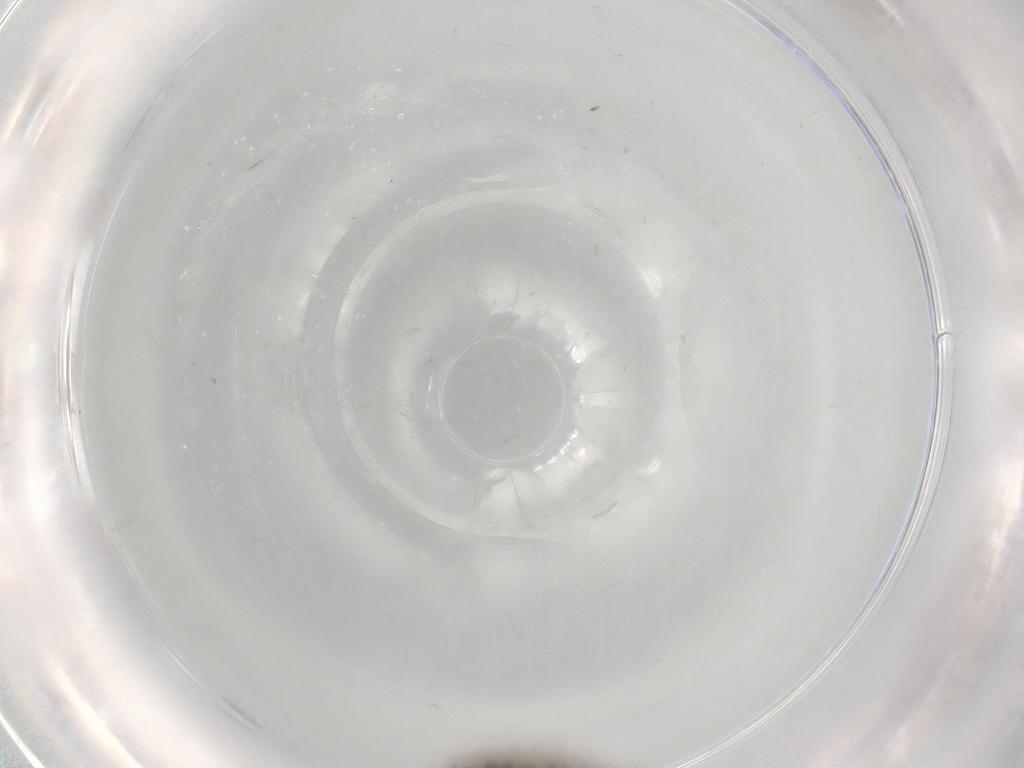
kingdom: Animalia
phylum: Arthropoda
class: Insecta
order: Lepidoptera
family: Nepticulidae
